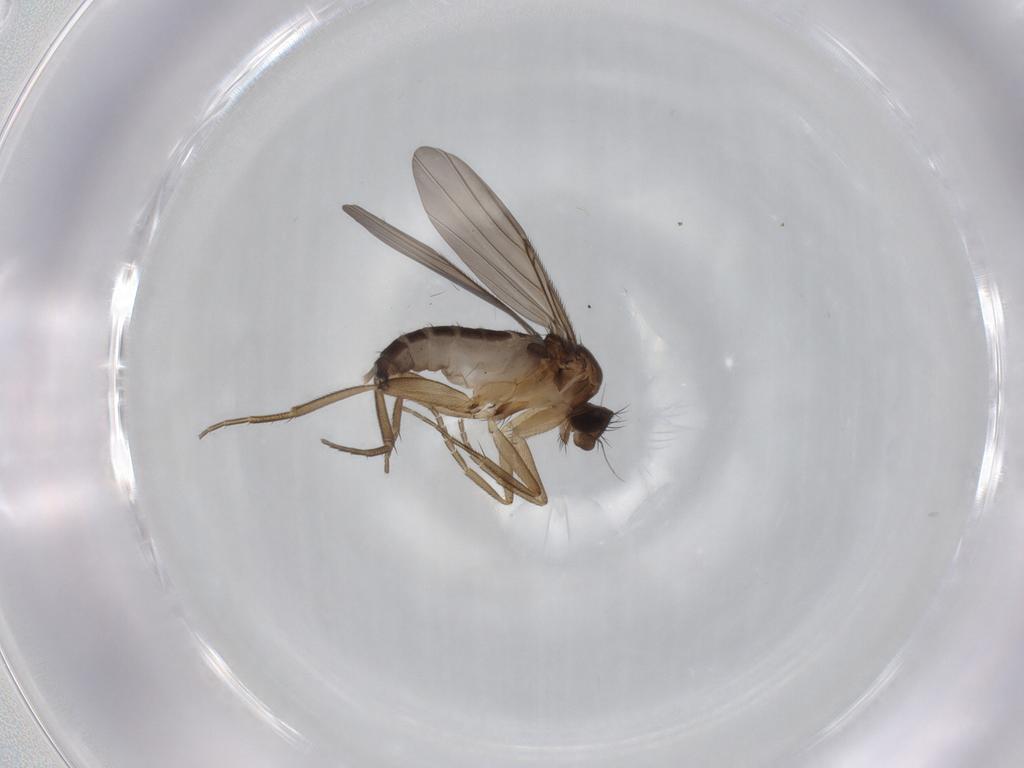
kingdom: Animalia
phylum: Arthropoda
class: Insecta
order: Diptera
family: Phoridae
